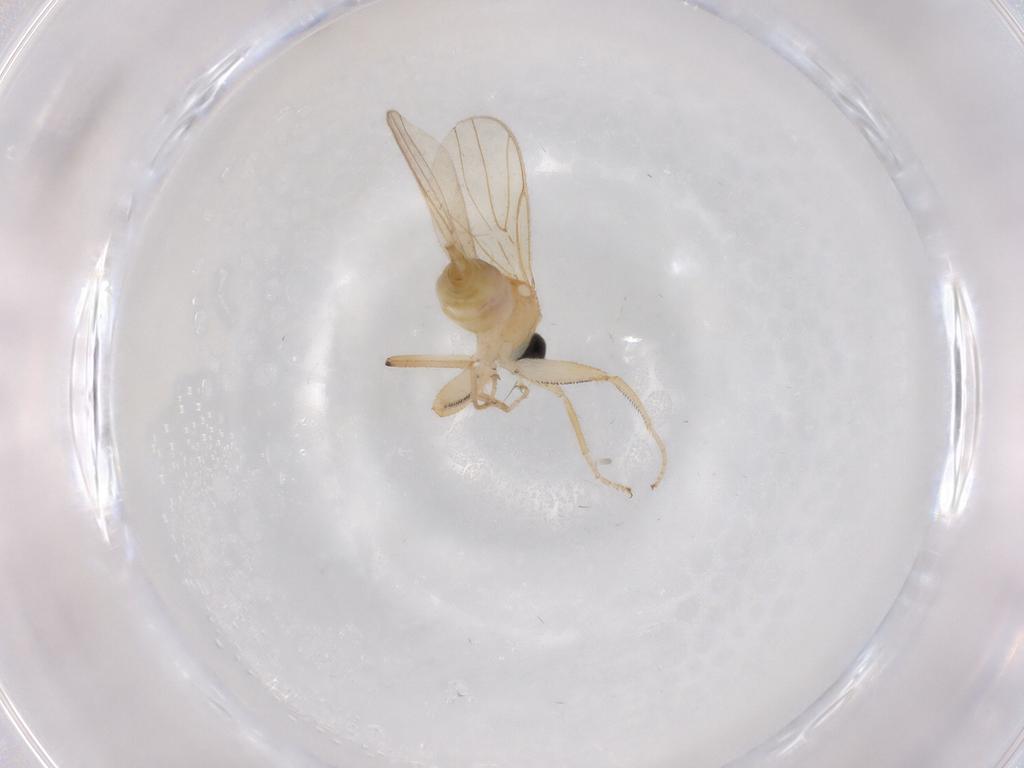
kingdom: Animalia
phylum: Arthropoda
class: Insecta
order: Diptera
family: Hybotidae
